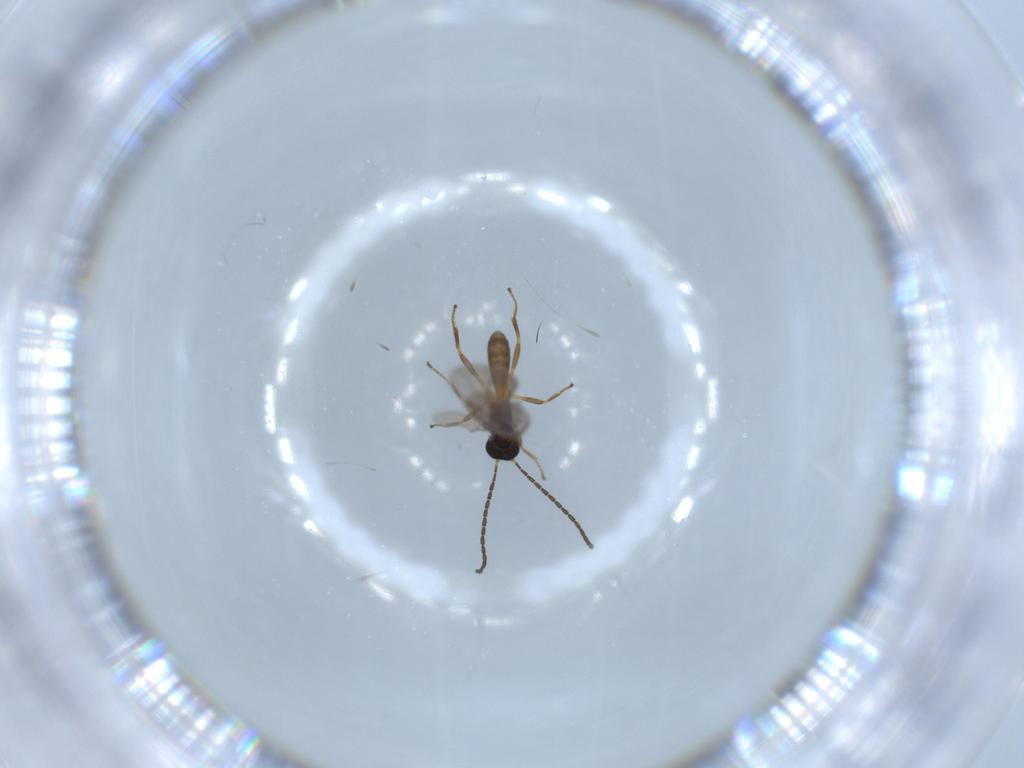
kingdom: Animalia
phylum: Arthropoda
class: Insecta
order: Hymenoptera
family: Braconidae
